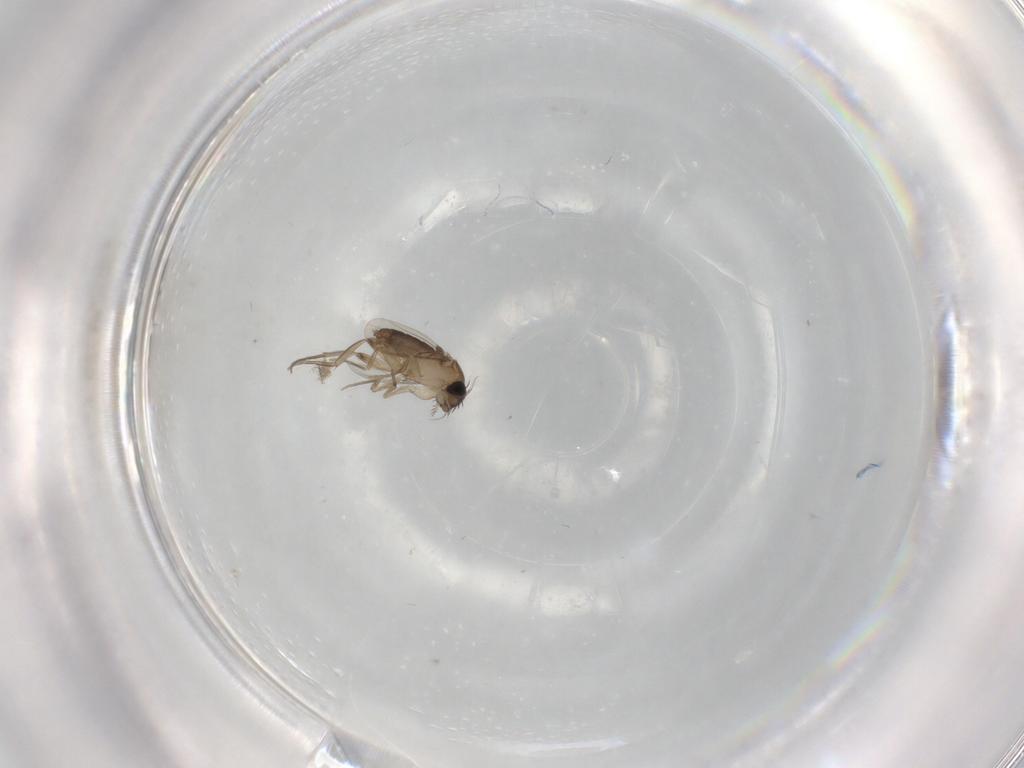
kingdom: Animalia
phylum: Arthropoda
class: Insecta
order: Diptera
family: Phoridae
